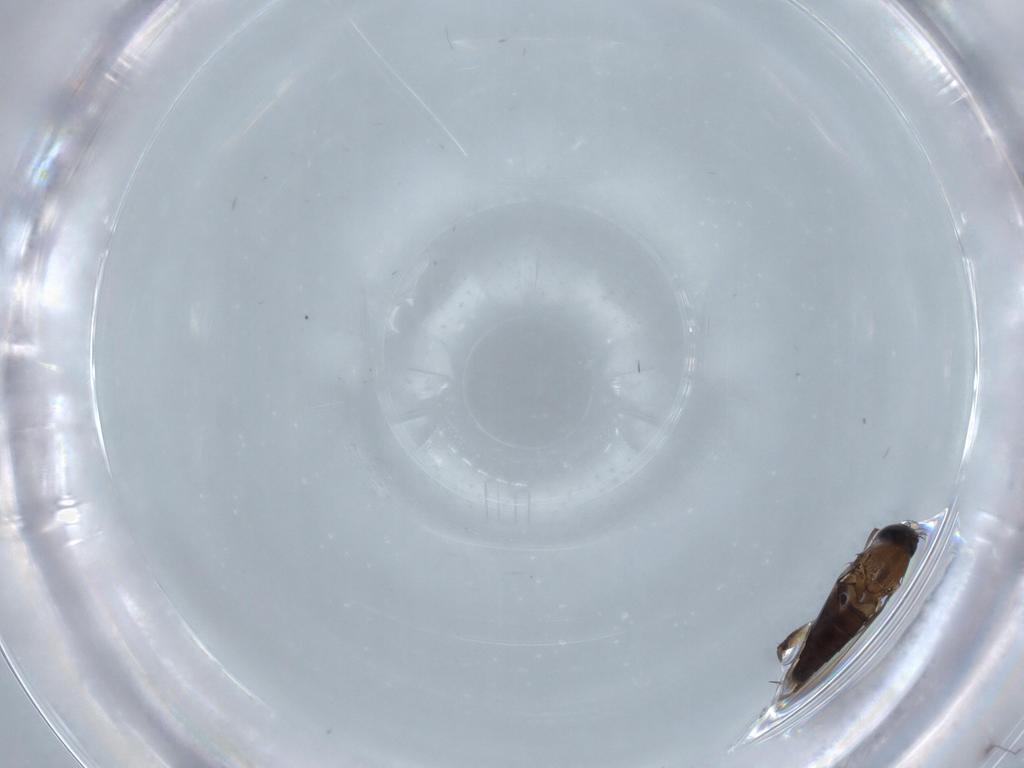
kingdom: Animalia
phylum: Arthropoda
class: Insecta
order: Diptera
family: Phoridae
